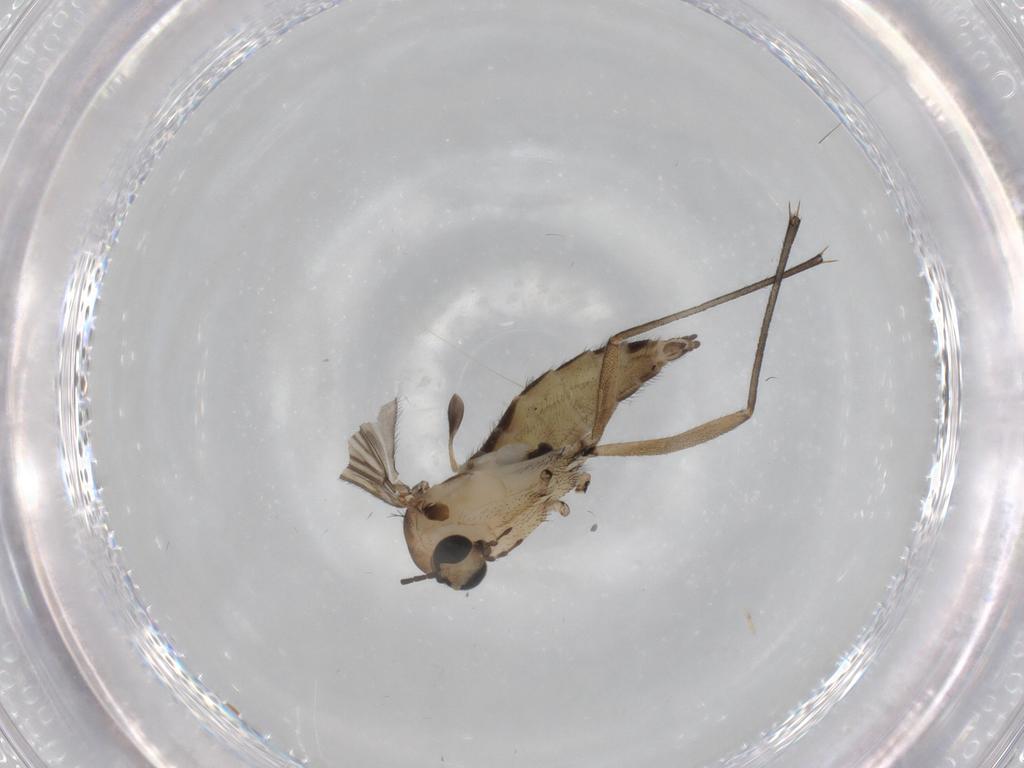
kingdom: Animalia
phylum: Arthropoda
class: Insecta
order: Diptera
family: Sciaridae
